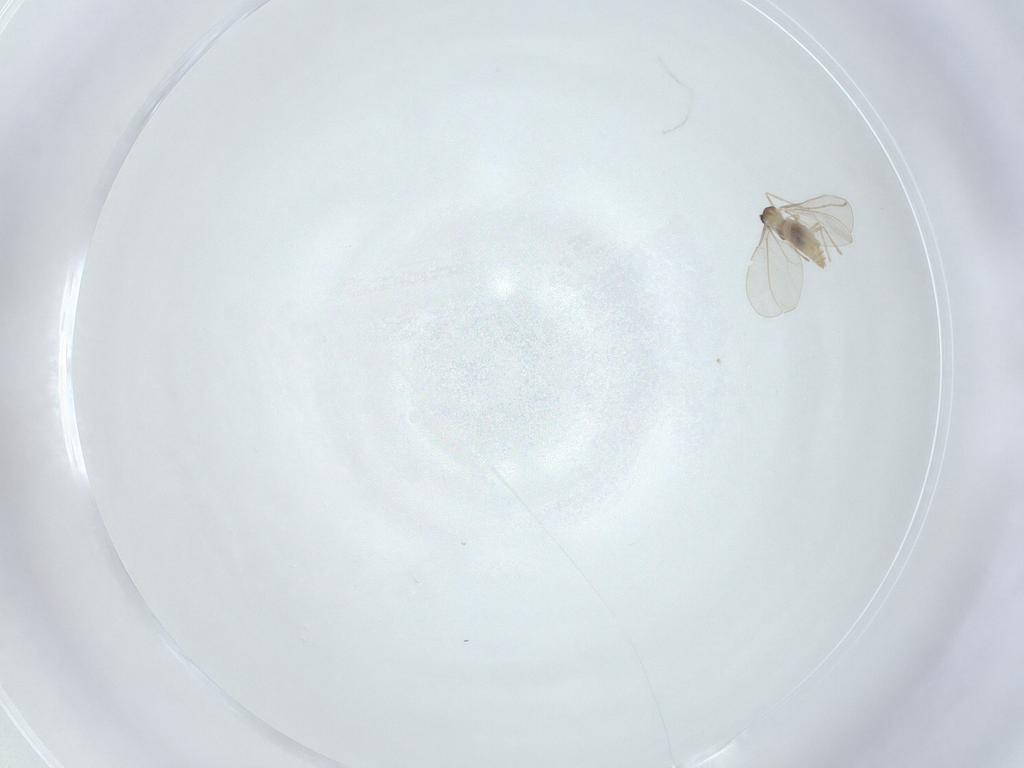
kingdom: Animalia
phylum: Arthropoda
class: Insecta
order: Diptera
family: Cecidomyiidae
